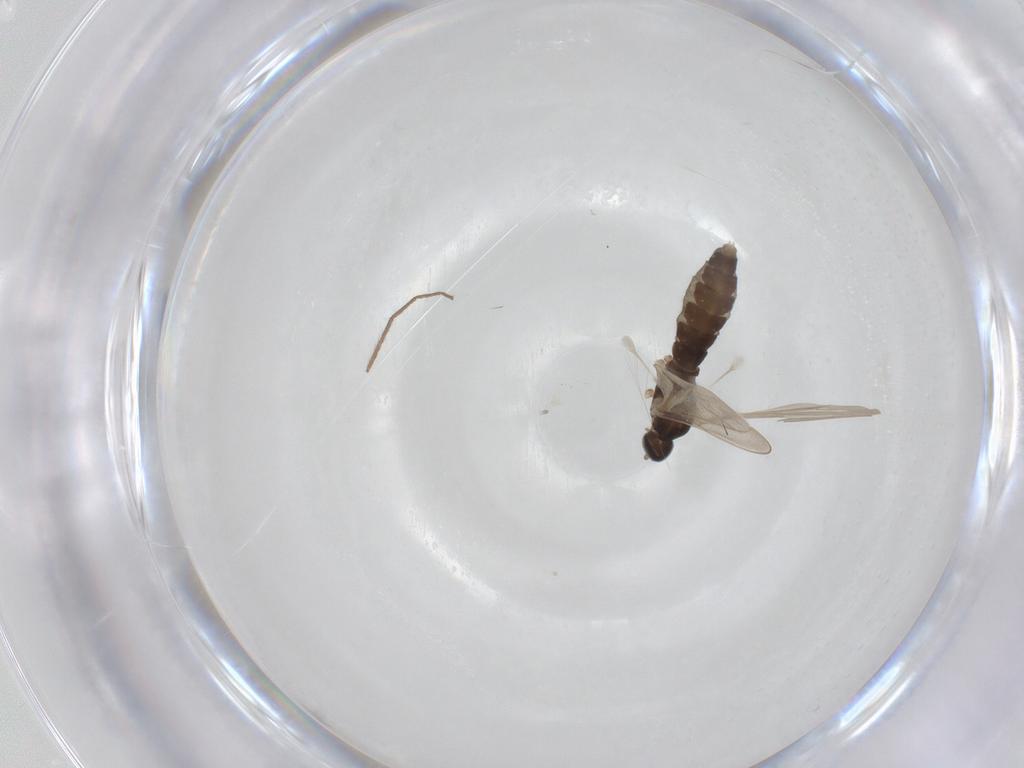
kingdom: Animalia
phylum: Arthropoda
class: Insecta
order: Diptera
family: Cecidomyiidae
